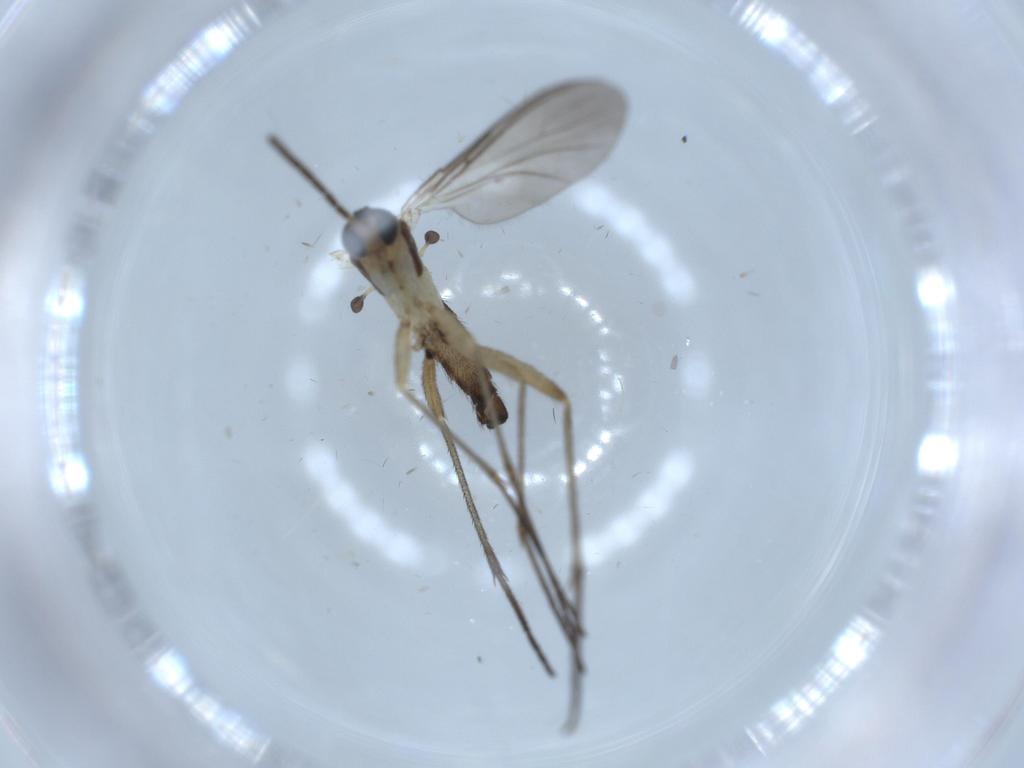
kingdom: Animalia
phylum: Arthropoda
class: Insecta
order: Diptera
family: Sciaridae
